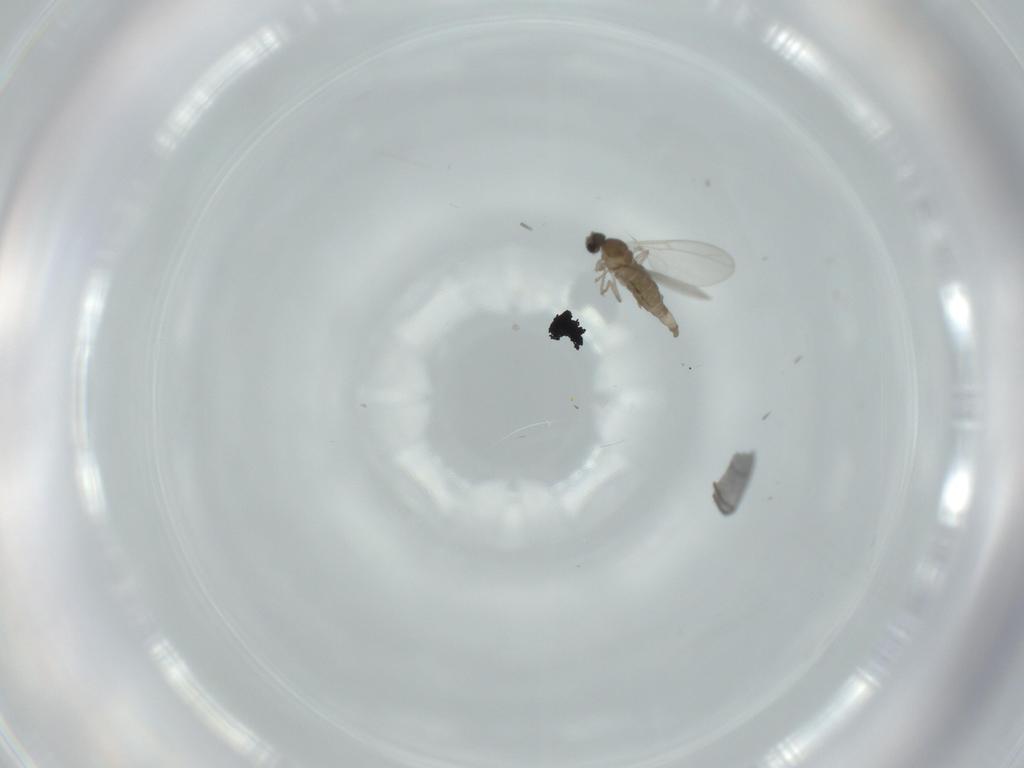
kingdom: Animalia
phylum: Arthropoda
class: Insecta
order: Diptera
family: Cecidomyiidae
